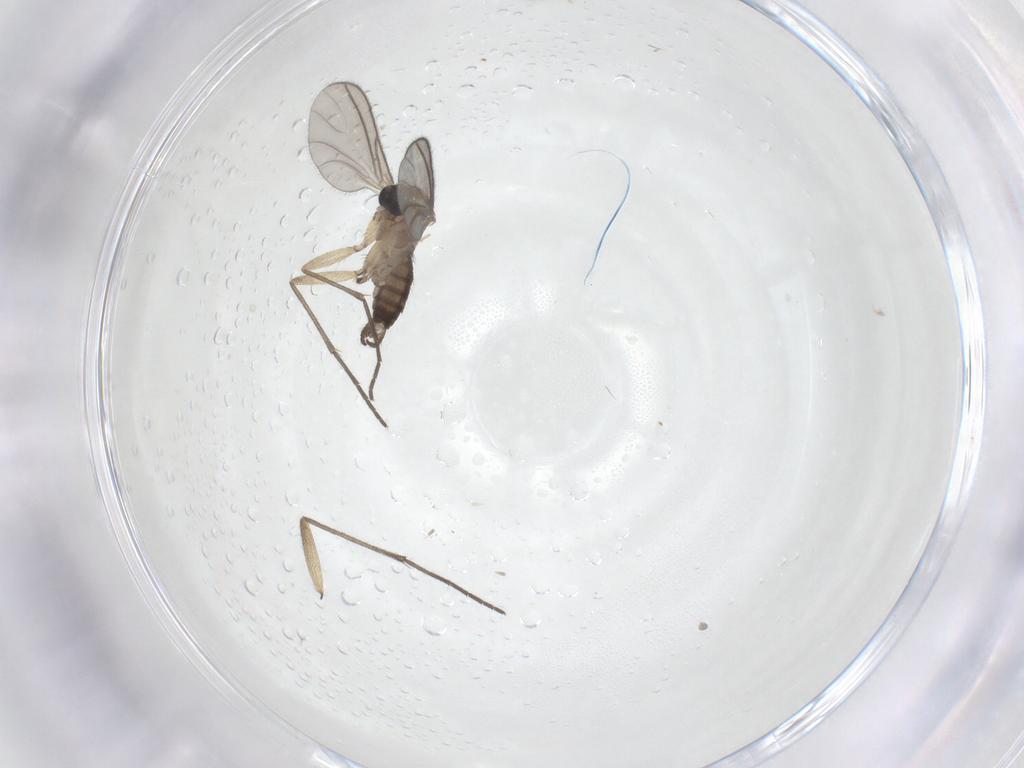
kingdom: Animalia
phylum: Arthropoda
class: Insecta
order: Diptera
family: Sciaridae
